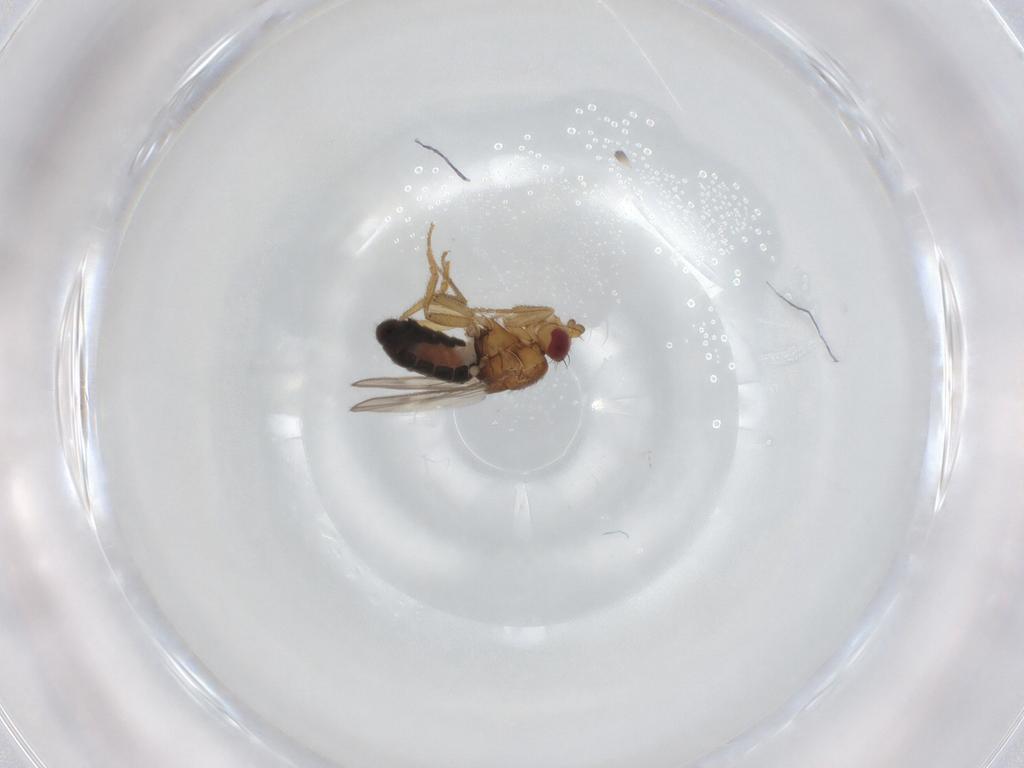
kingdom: Animalia
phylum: Arthropoda
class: Insecta
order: Diptera
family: Sphaeroceridae
